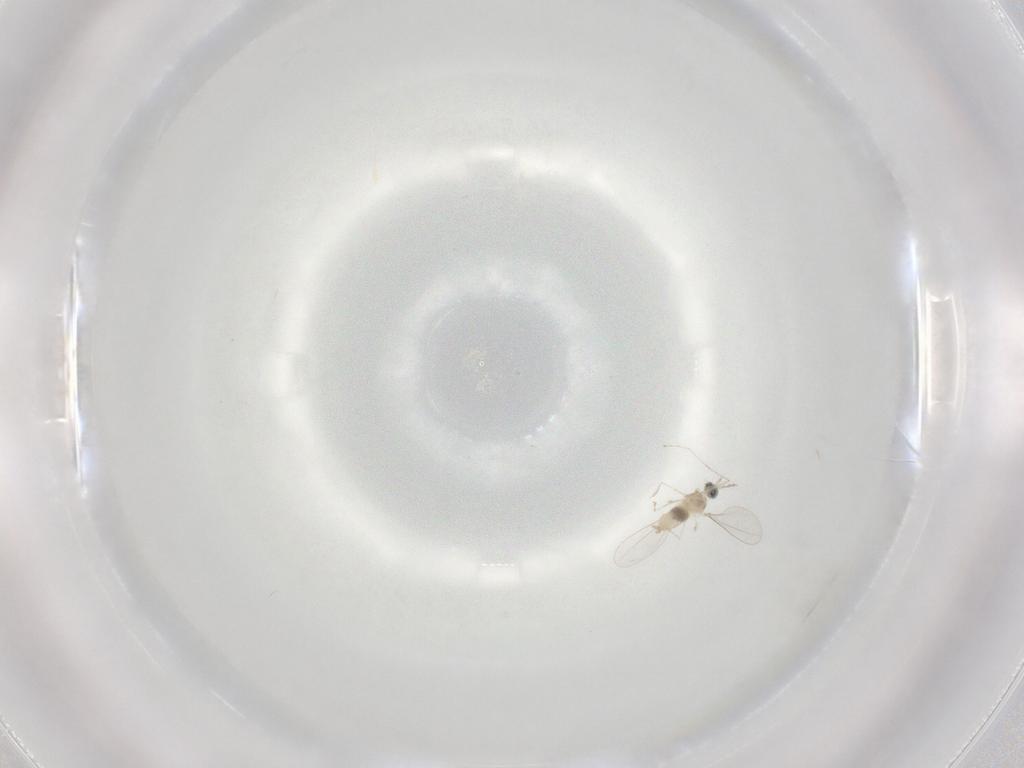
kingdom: Animalia
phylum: Arthropoda
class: Insecta
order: Diptera
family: Cecidomyiidae
